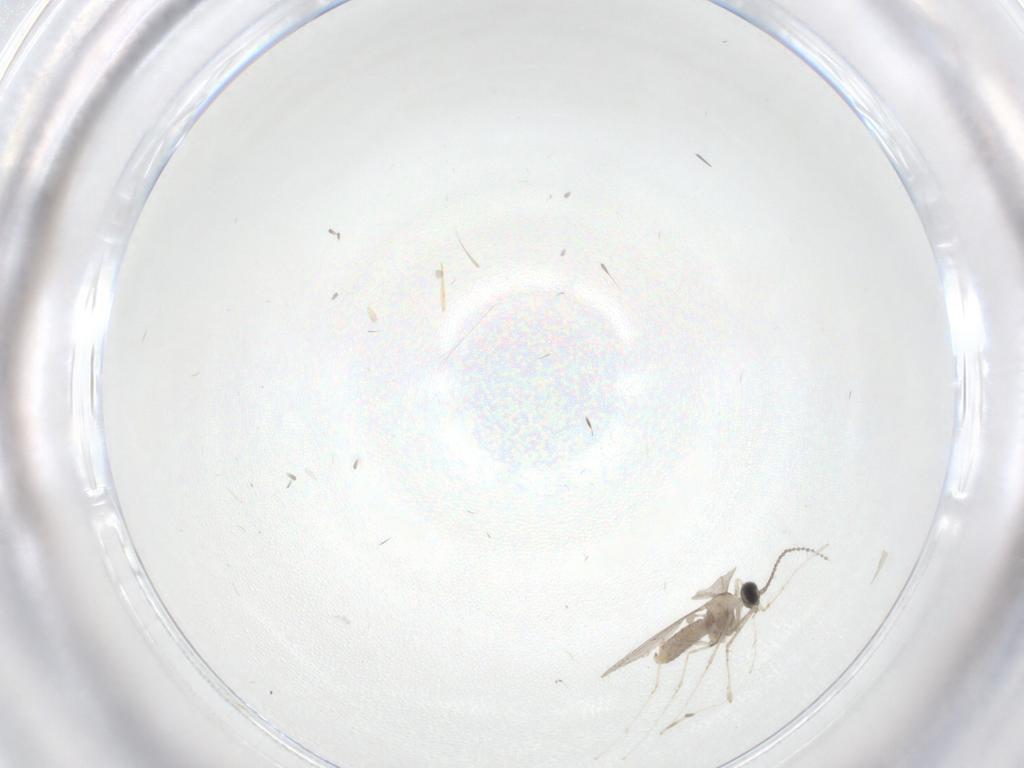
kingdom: Animalia
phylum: Arthropoda
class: Insecta
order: Diptera
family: Cecidomyiidae
